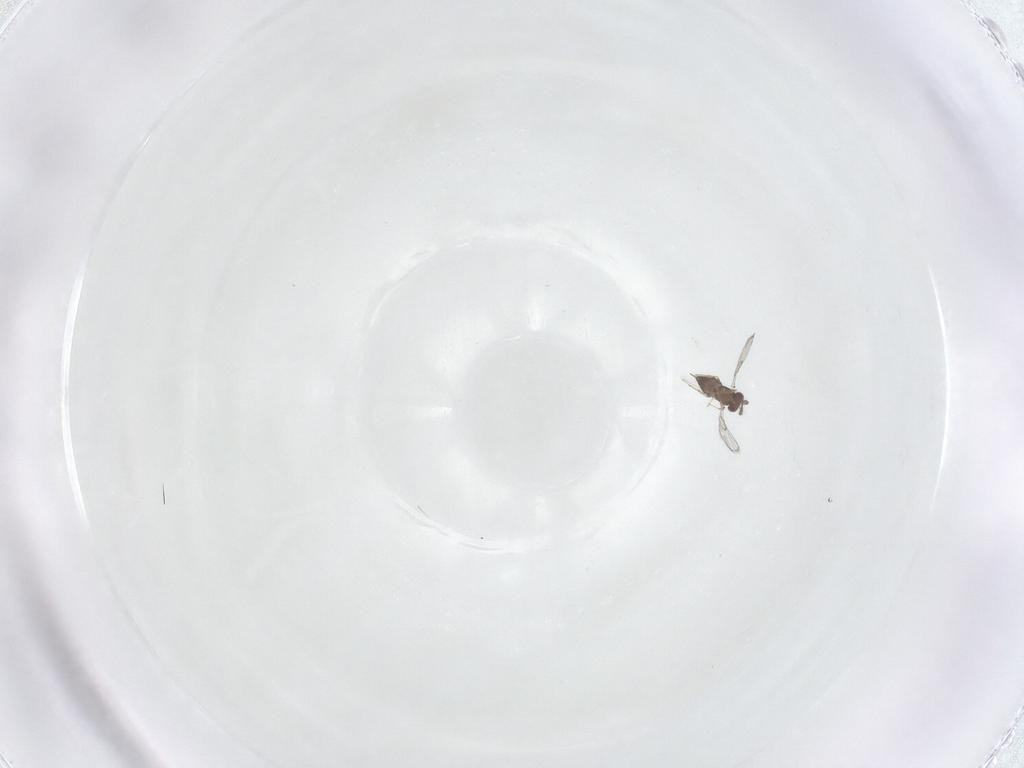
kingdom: Animalia
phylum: Arthropoda
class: Insecta
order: Hymenoptera
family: Trichogrammatidae
